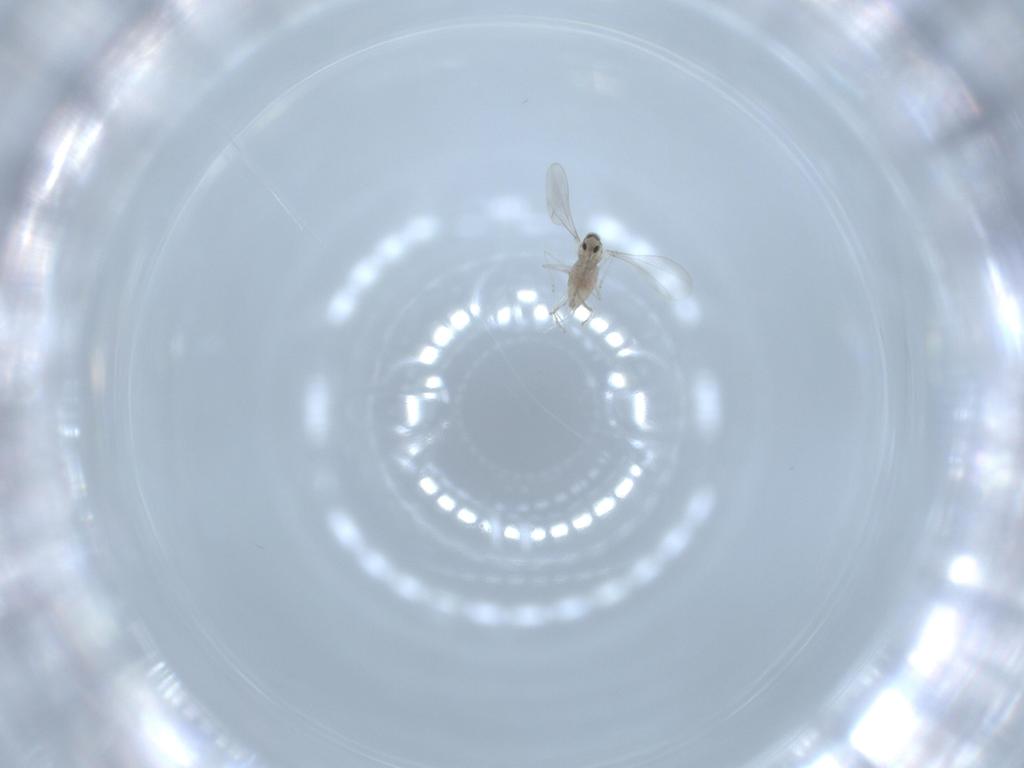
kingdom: Animalia
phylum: Arthropoda
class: Insecta
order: Diptera
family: Cecidomyiidae
